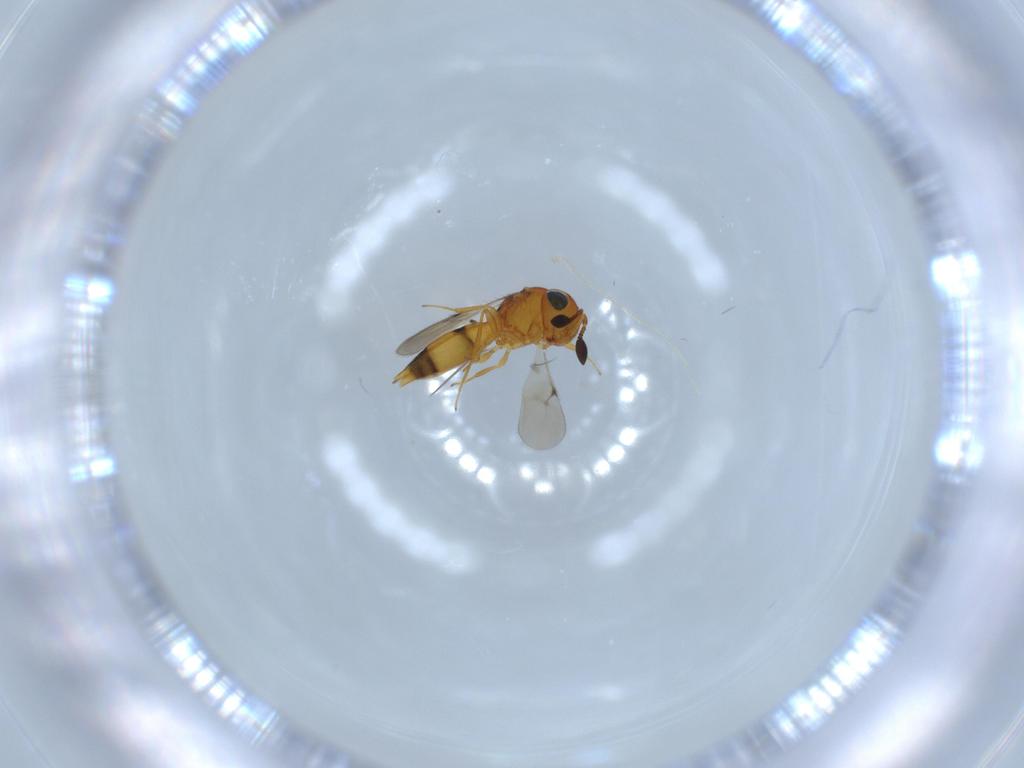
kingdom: Animalia
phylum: Arthropoda
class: Insecta
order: Hymenoptera
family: Scelionidae
